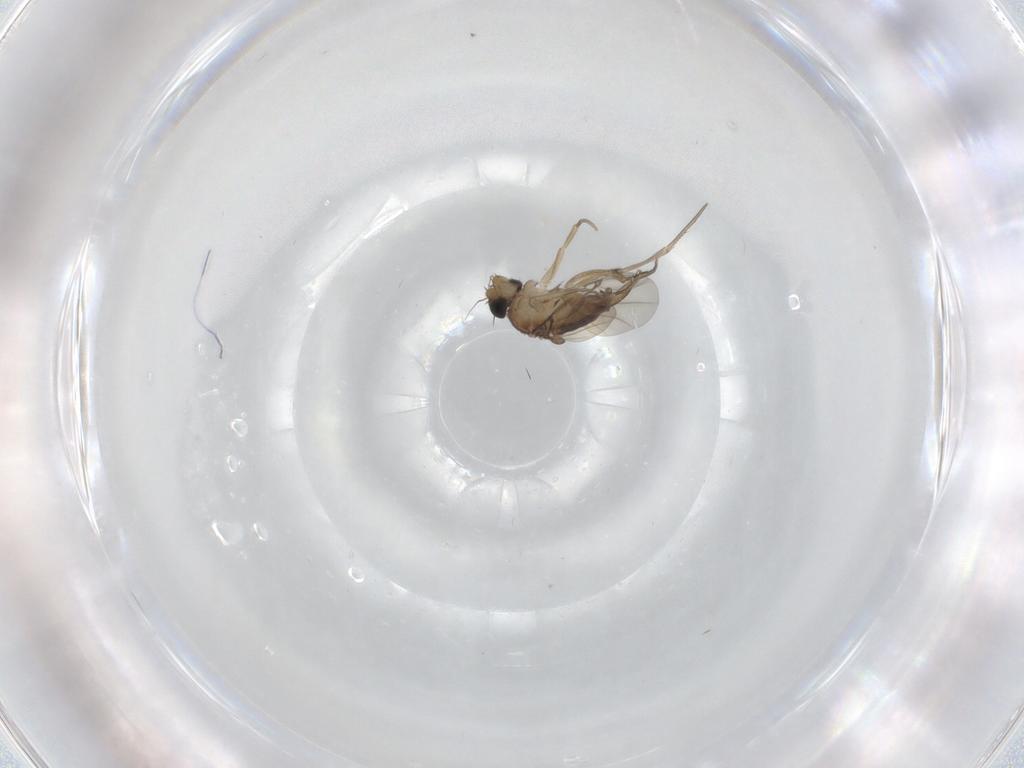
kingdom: Animalia
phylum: Arthropoda
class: Insecta
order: Diptera
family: Phoridae
